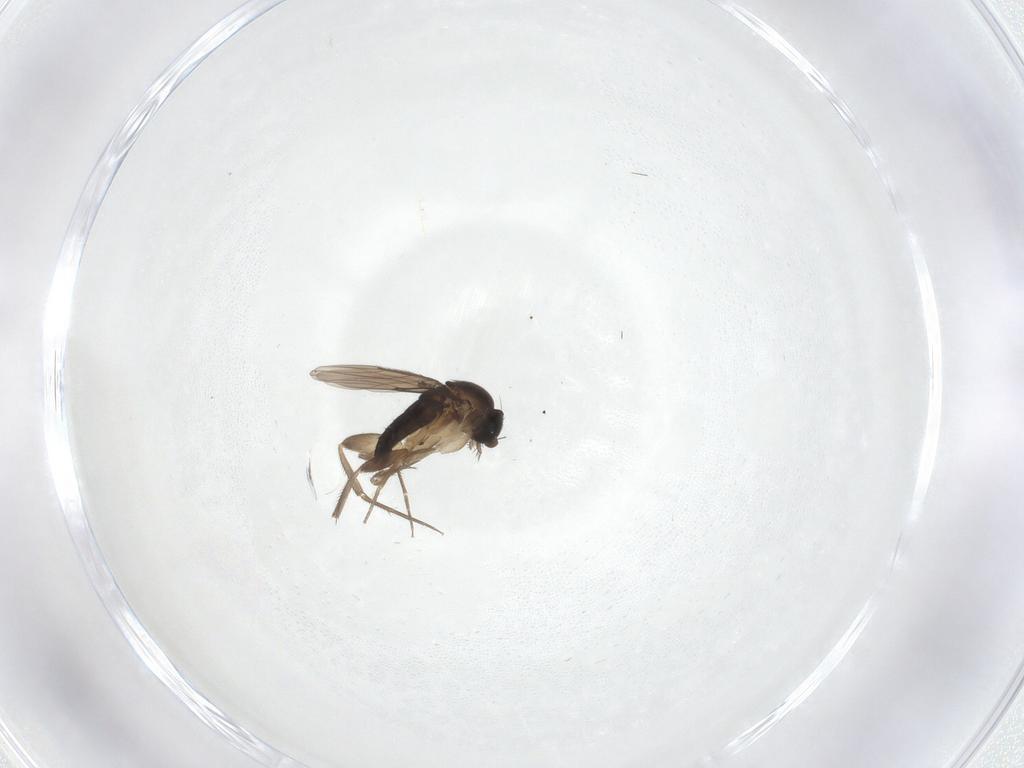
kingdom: Animalia
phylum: Arthropoda
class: Insecta
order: Diptera
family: Phoridae
